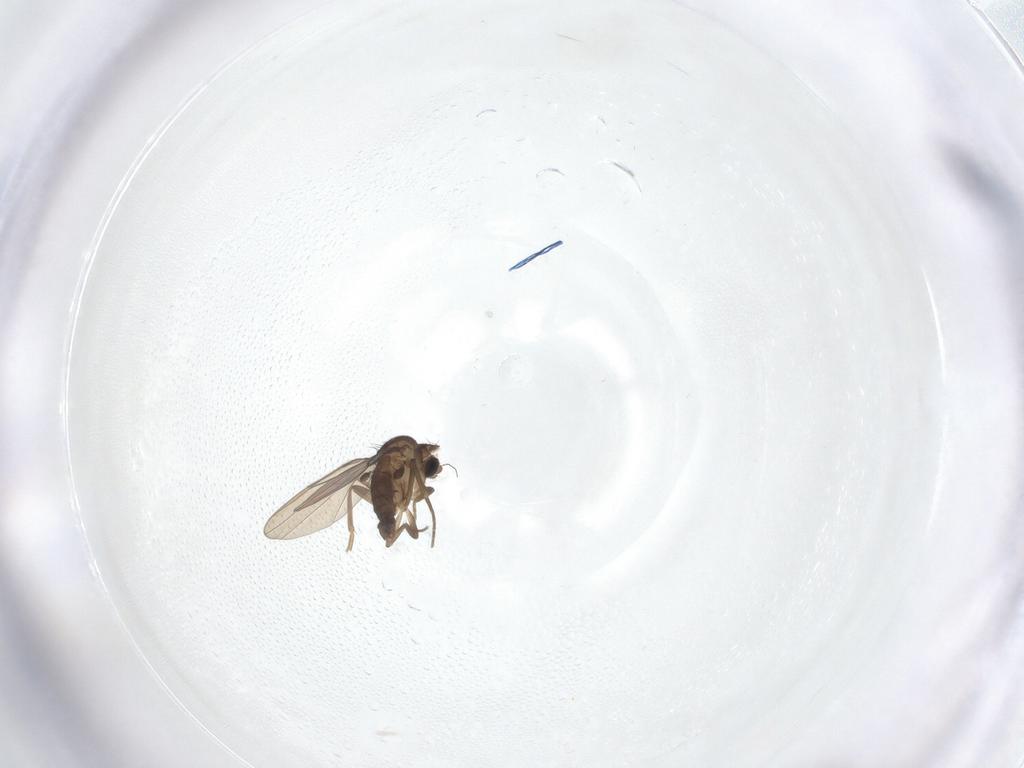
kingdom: Animalia
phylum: Arthropoda
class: Insecta
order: Diptera
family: Phoridae
